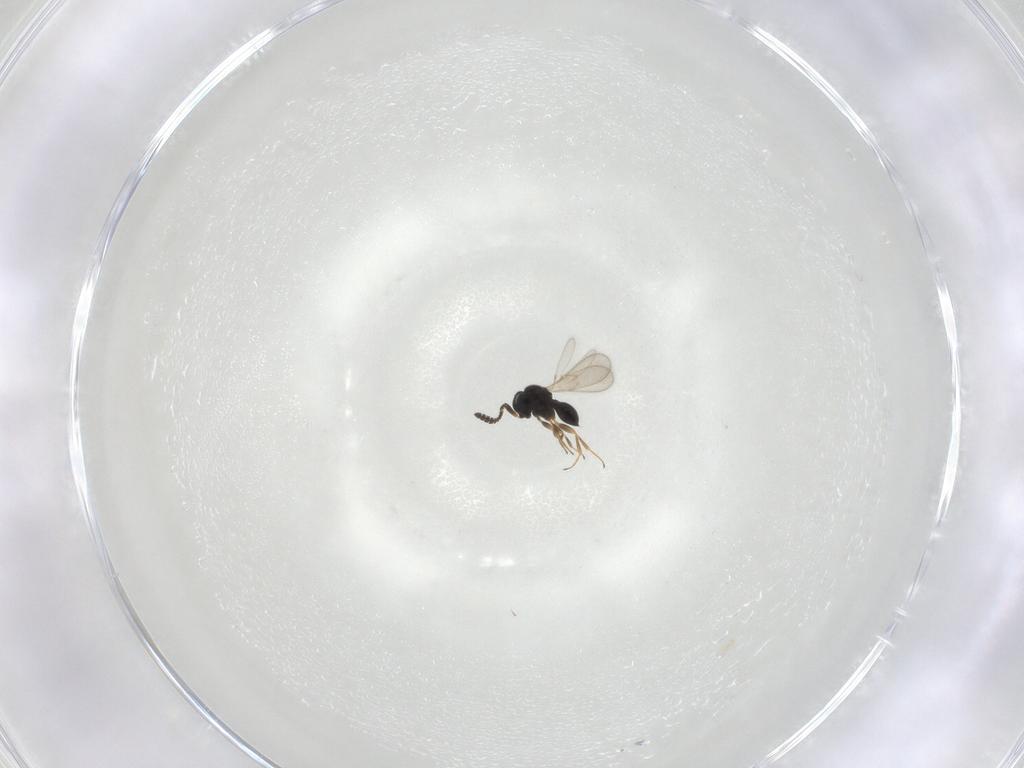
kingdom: Animalia
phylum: Arthropoda
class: Insecta
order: Hymenoptera
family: Scelionidae
